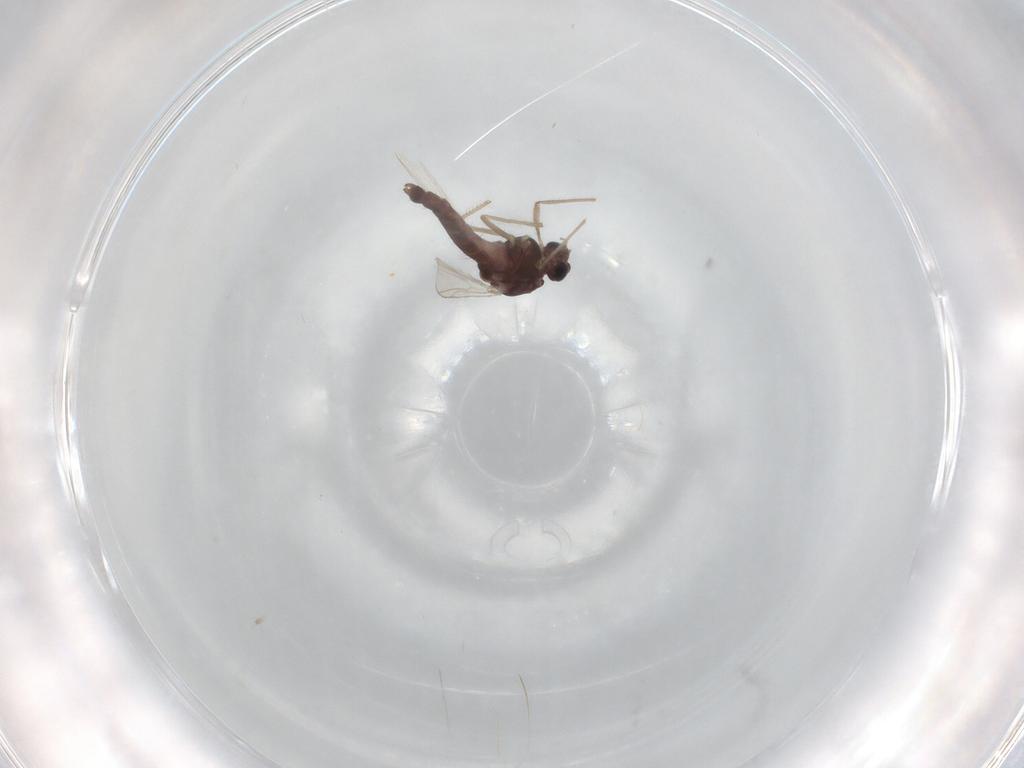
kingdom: Animalia
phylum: Arthropoda
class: Insecta
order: Diptera
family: Chironomidae
